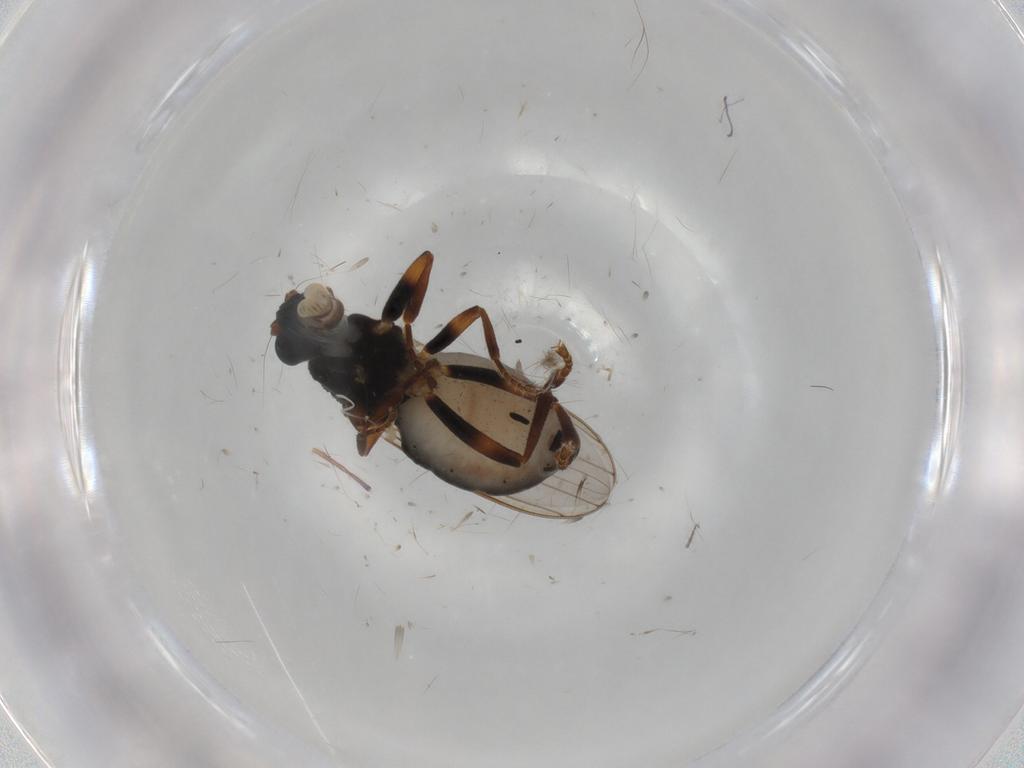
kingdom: Animalia
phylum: Arthropoda
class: Insecta
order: Diptera
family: Sphaeroceridae
